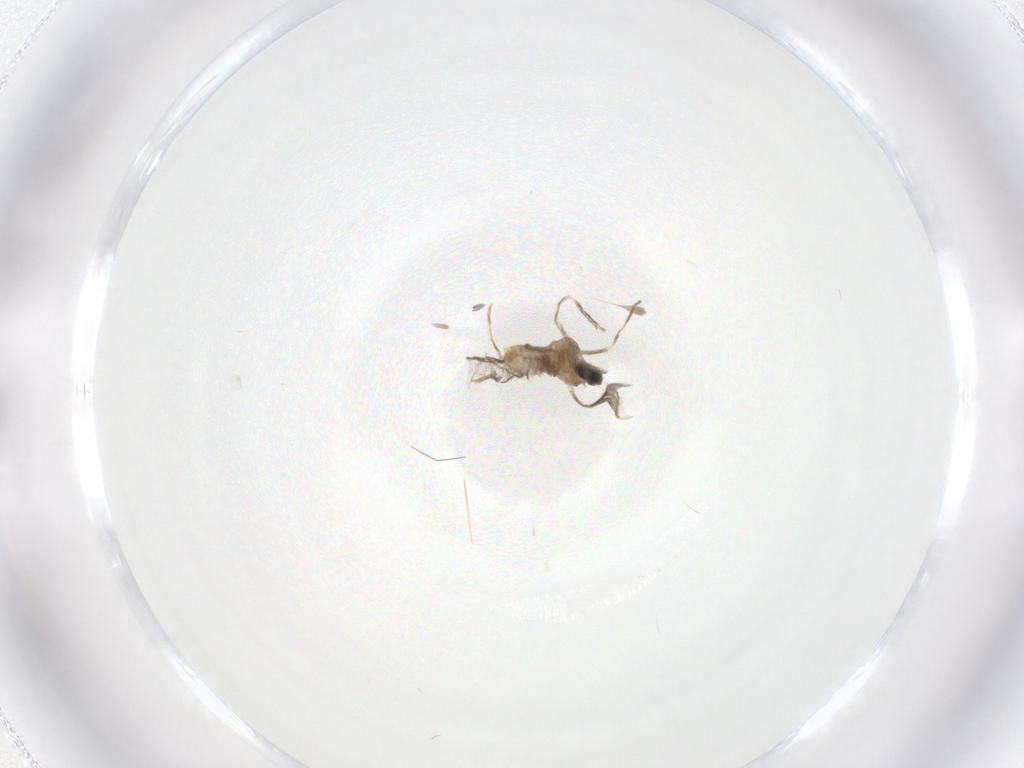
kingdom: Animalia
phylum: Arthropoda
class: Insecta
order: Diptera
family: Cecidomyiidae
